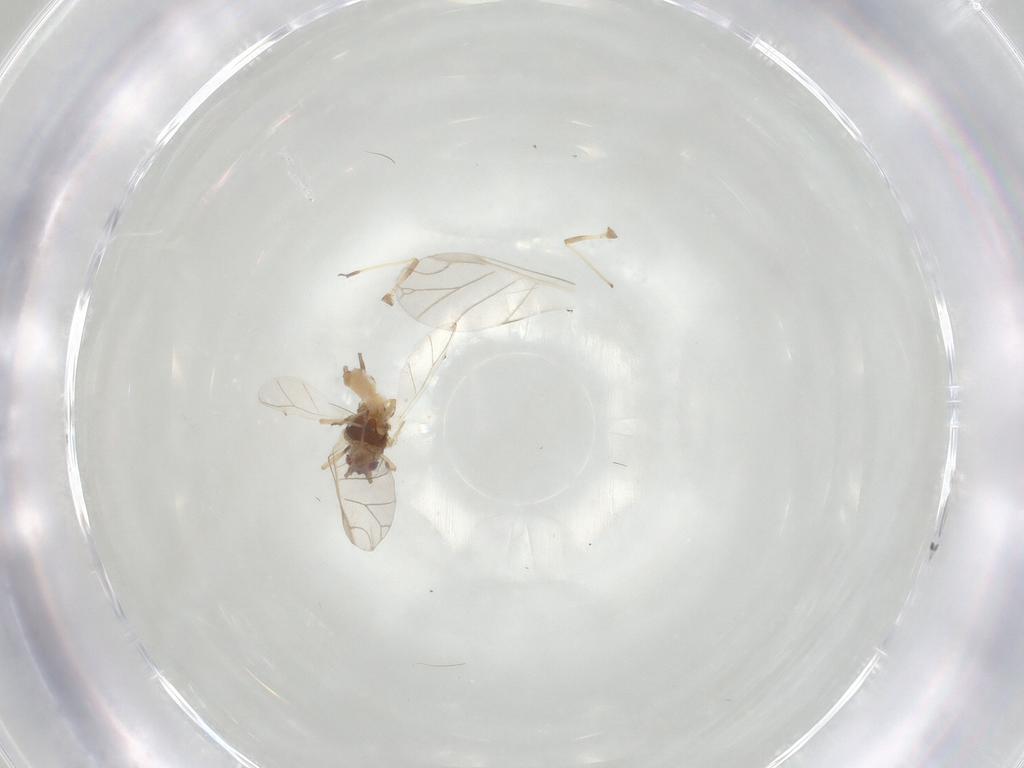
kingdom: Animalia
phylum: Arthropoda
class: Insecta
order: Hemiptera
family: Aphididae
